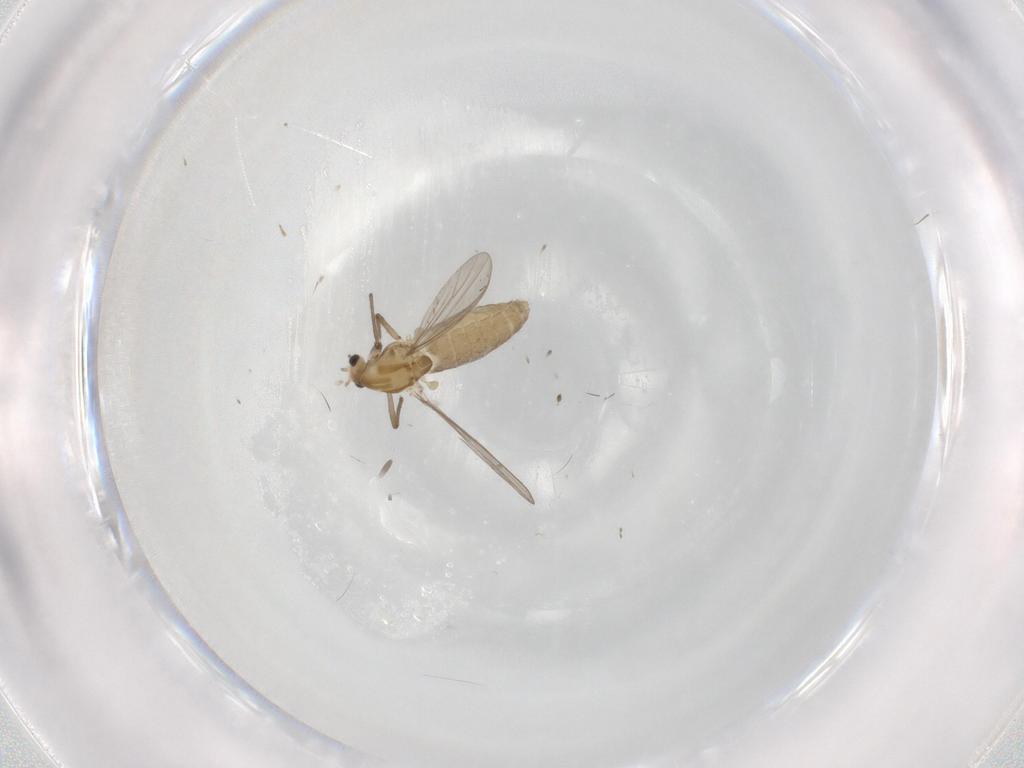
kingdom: Animalia
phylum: Arthropoda
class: Insecta
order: Diptera
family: Chironomidae
